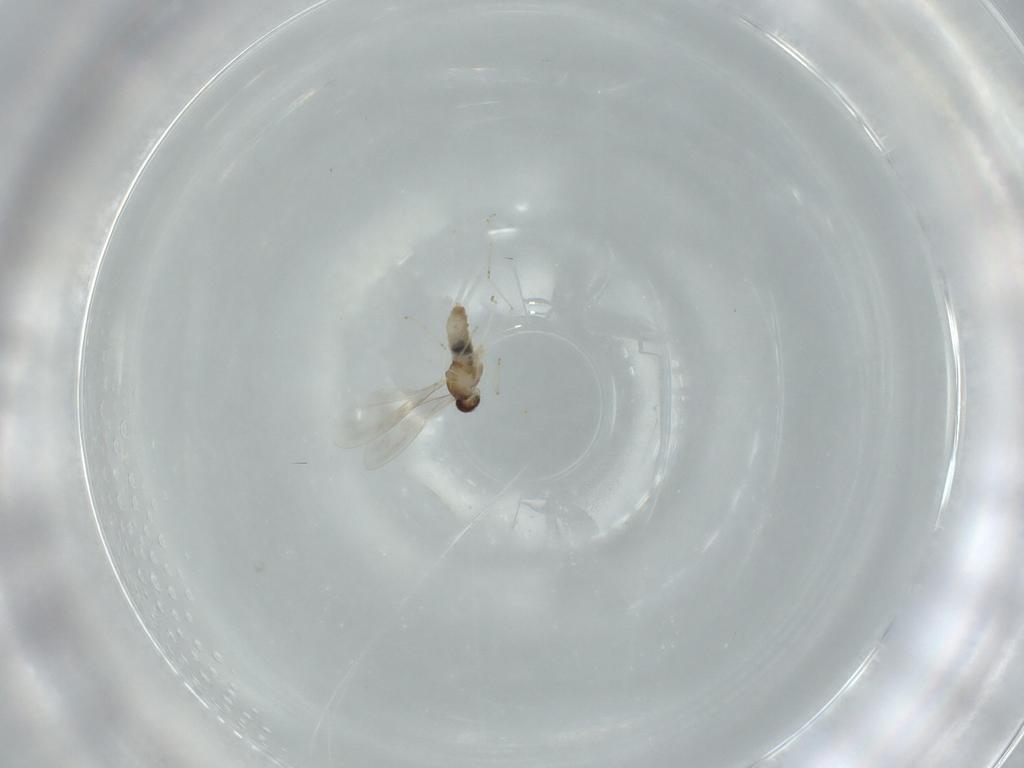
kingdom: Animalia
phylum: Arthropoda
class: Insecta
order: Diptera
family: Cecidomyiidae
